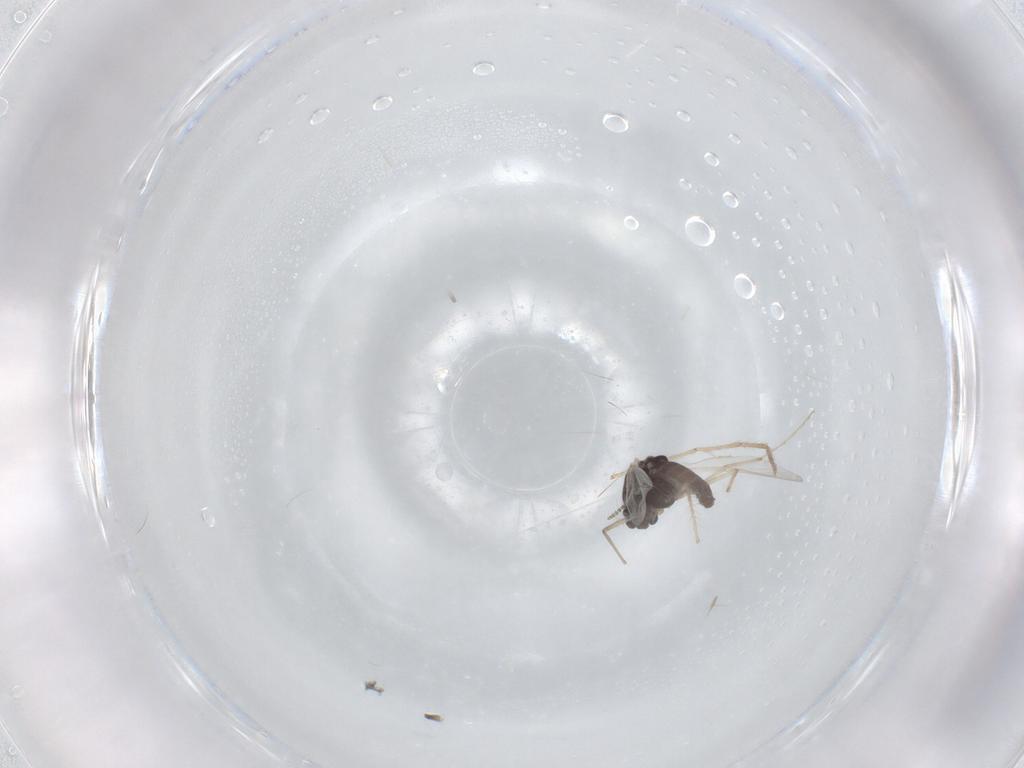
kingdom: Animalia
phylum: Arthropoda
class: Insecta
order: Diptera
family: Chironomidae
